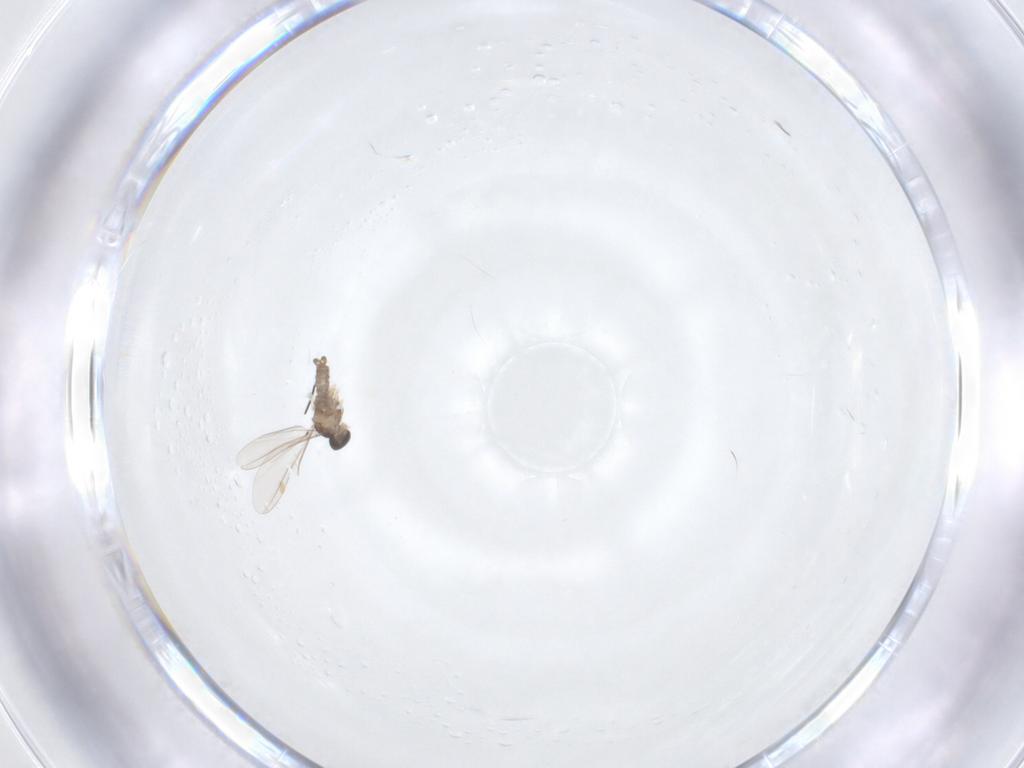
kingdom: Animalia
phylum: Arthropoda
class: Insecta
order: Diptera
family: Cecidomyiidae
